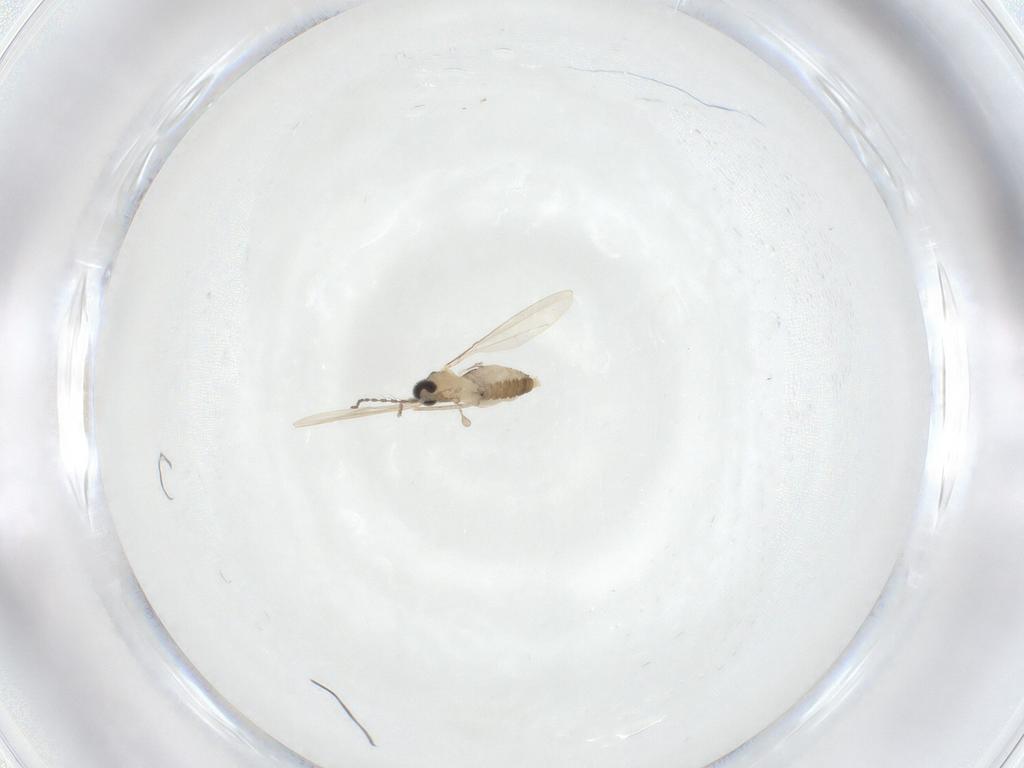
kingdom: Animalia
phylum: Arthropoda
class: Insecta
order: Diptera
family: Cecidomyiidae
